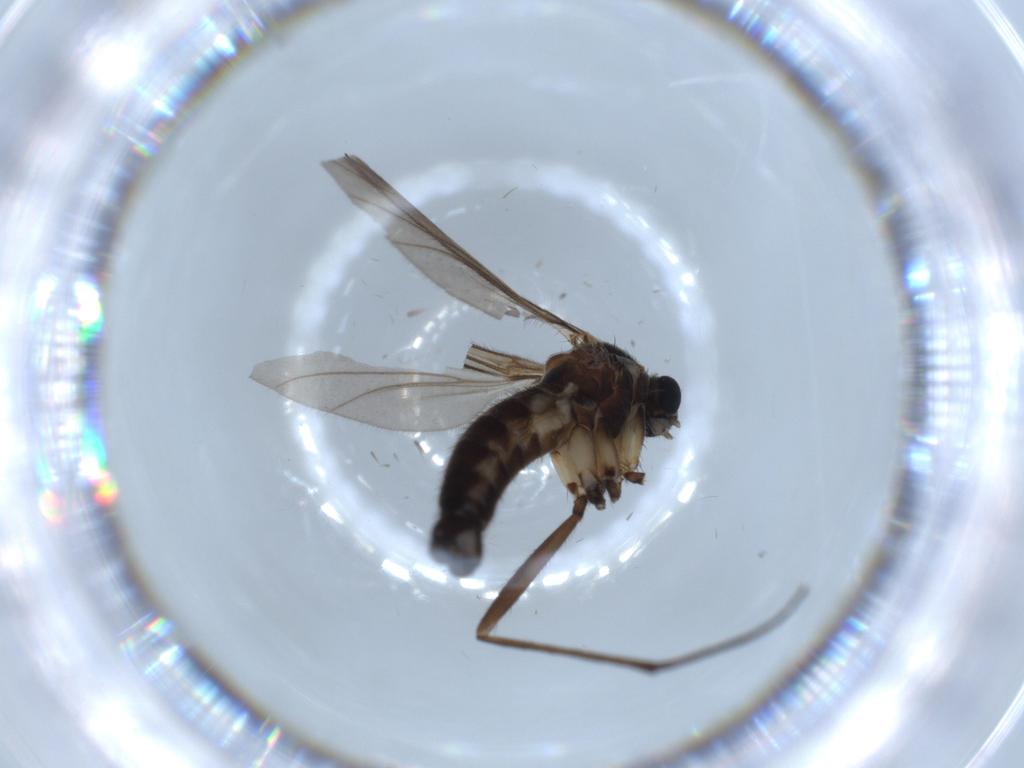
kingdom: Animalia
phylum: Arthropoda
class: Insecta
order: Diptera
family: Sciaridae
